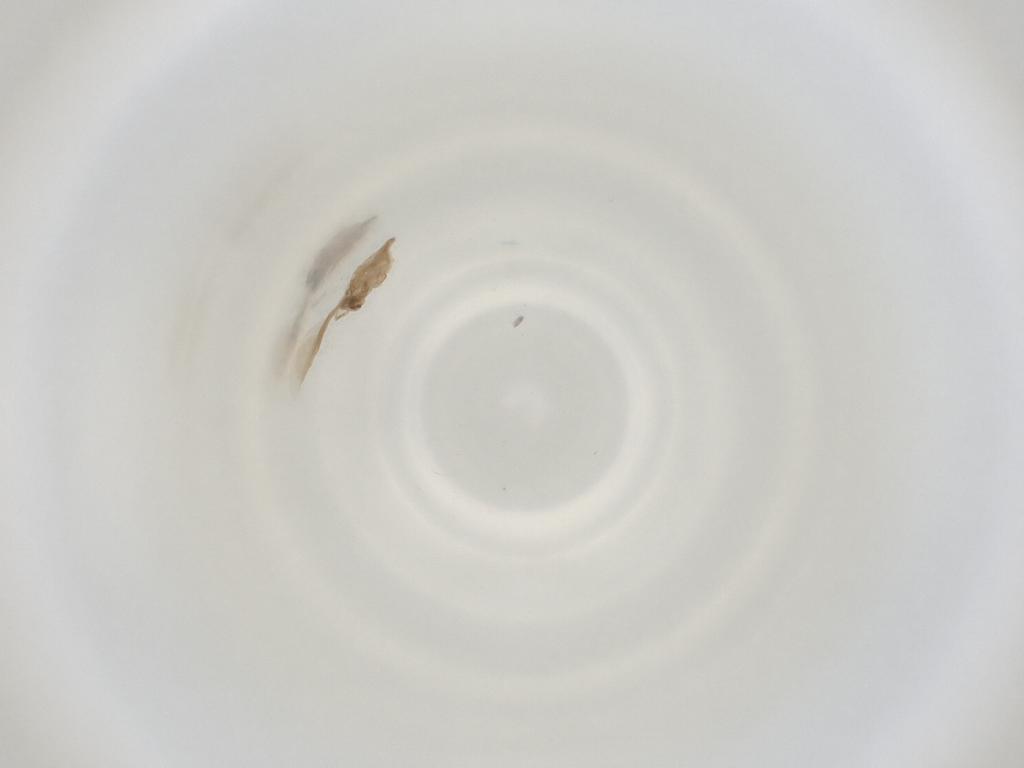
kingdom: Animalia
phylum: Arthropoda
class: Insecta
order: Diptera
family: Cecidomyiidae
